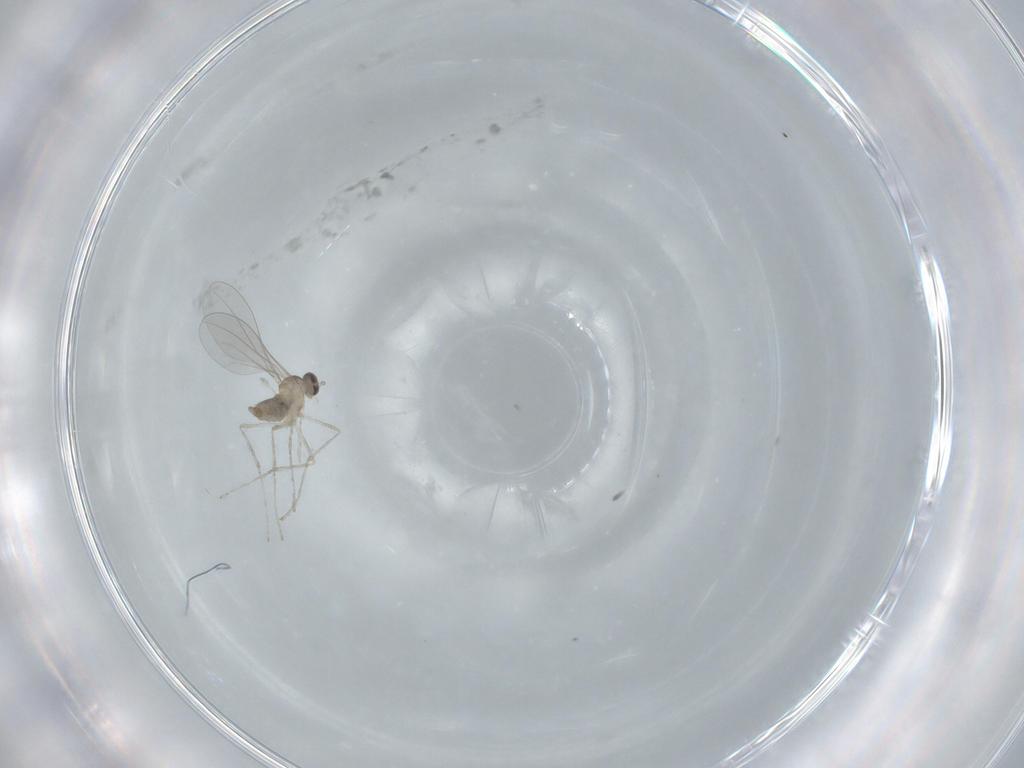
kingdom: Animalia
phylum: Arthropoda
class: Insecta
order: Diptera
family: Cecidomyiidae
